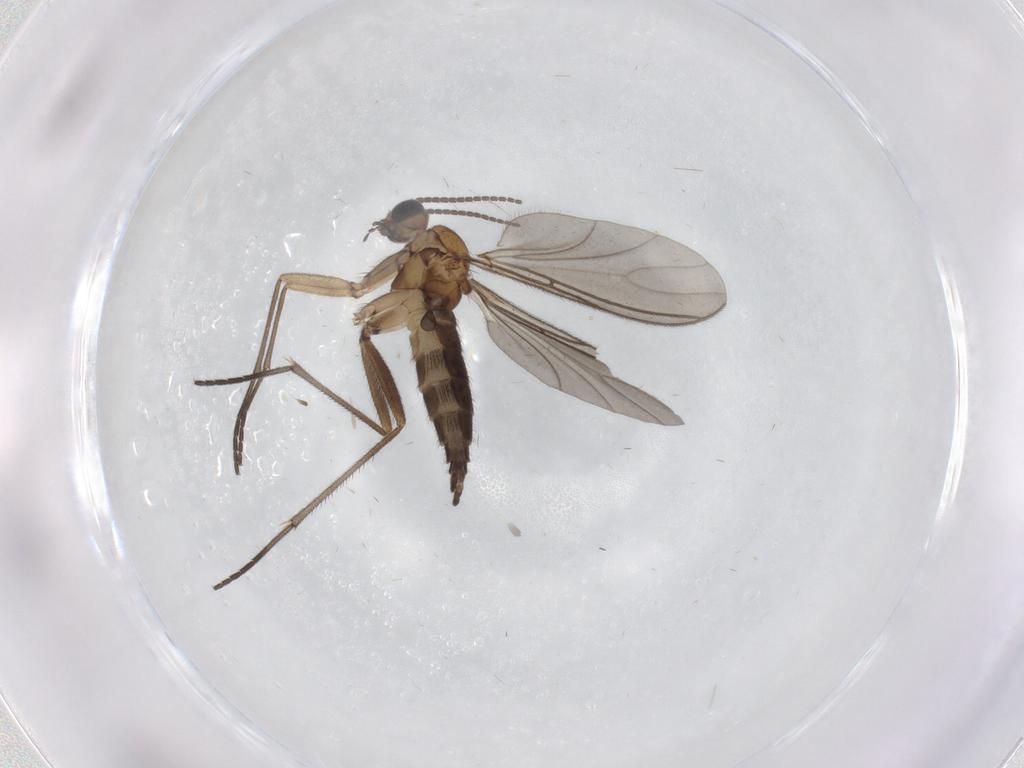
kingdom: Animalia
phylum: Arthropoda
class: Insecta
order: Diptera
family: Sciaridae
